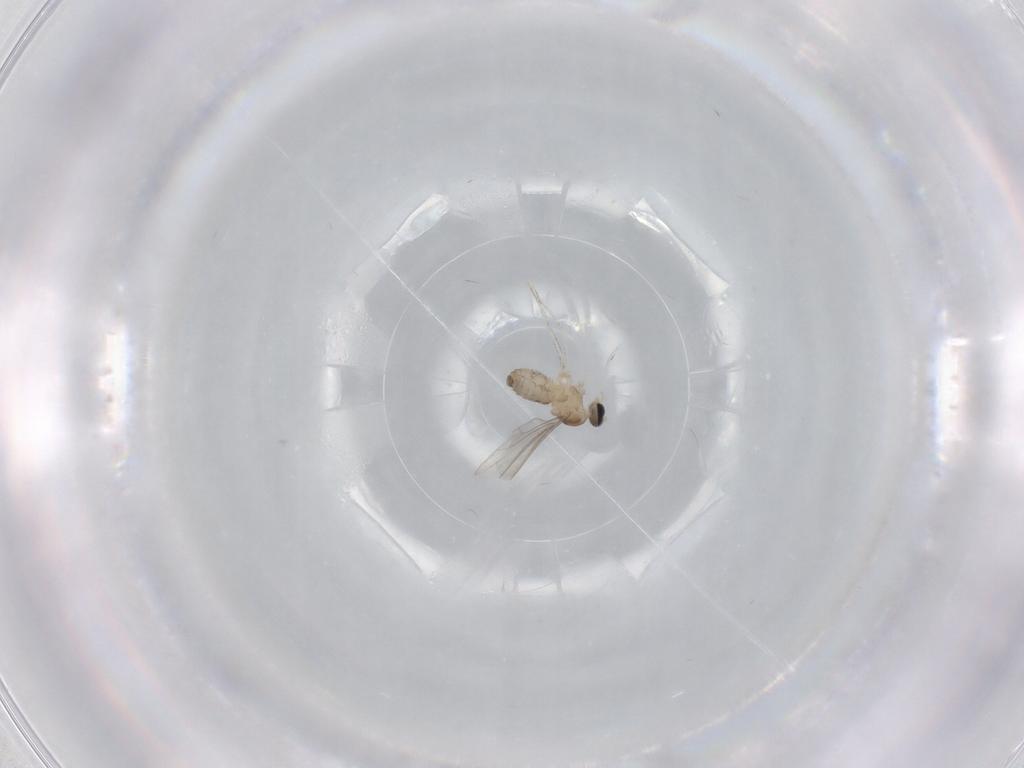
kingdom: Animalia
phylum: Arthropoda
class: Insecta
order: Diptera
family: Cecidomyiidae
